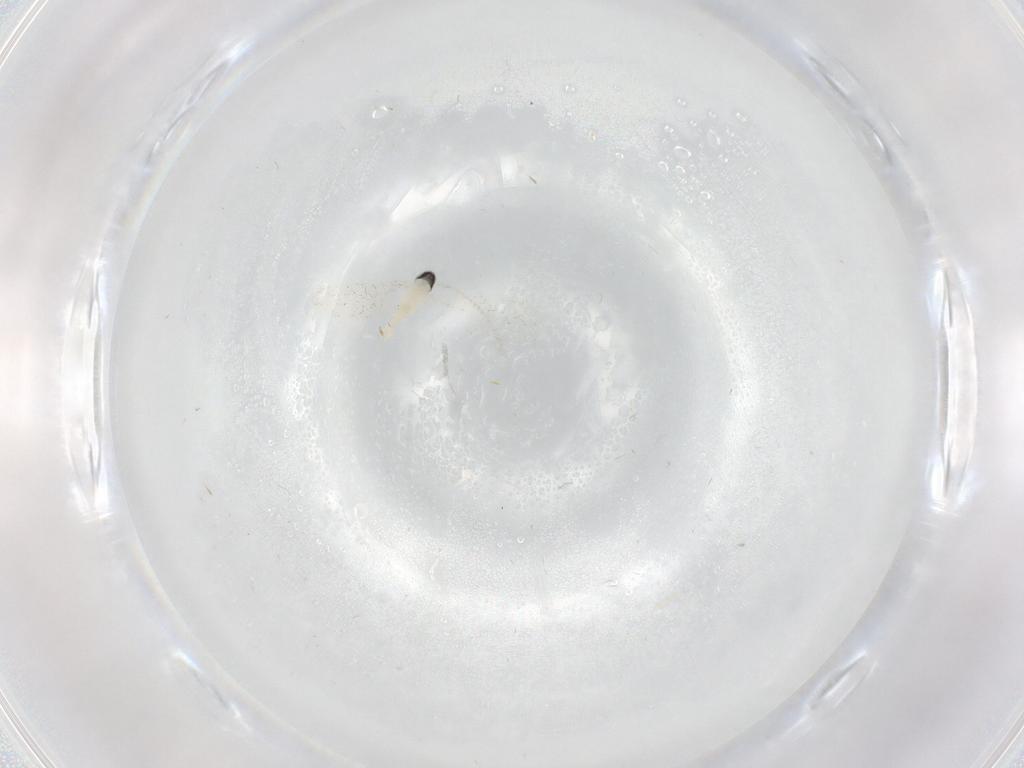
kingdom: Animalia
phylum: Arthropoda
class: Insecta
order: Diptera
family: Cecidomyiidae
